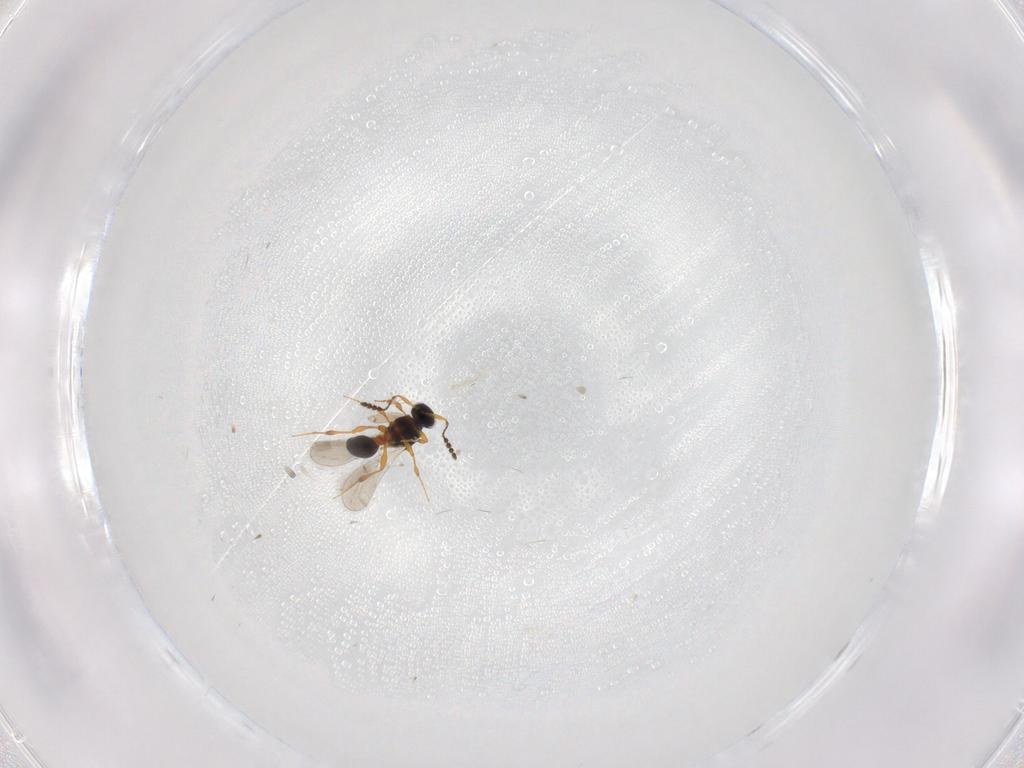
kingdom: Animalia
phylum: Arthropoda
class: Insecta
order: Hymenoptera
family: Platygastridae
